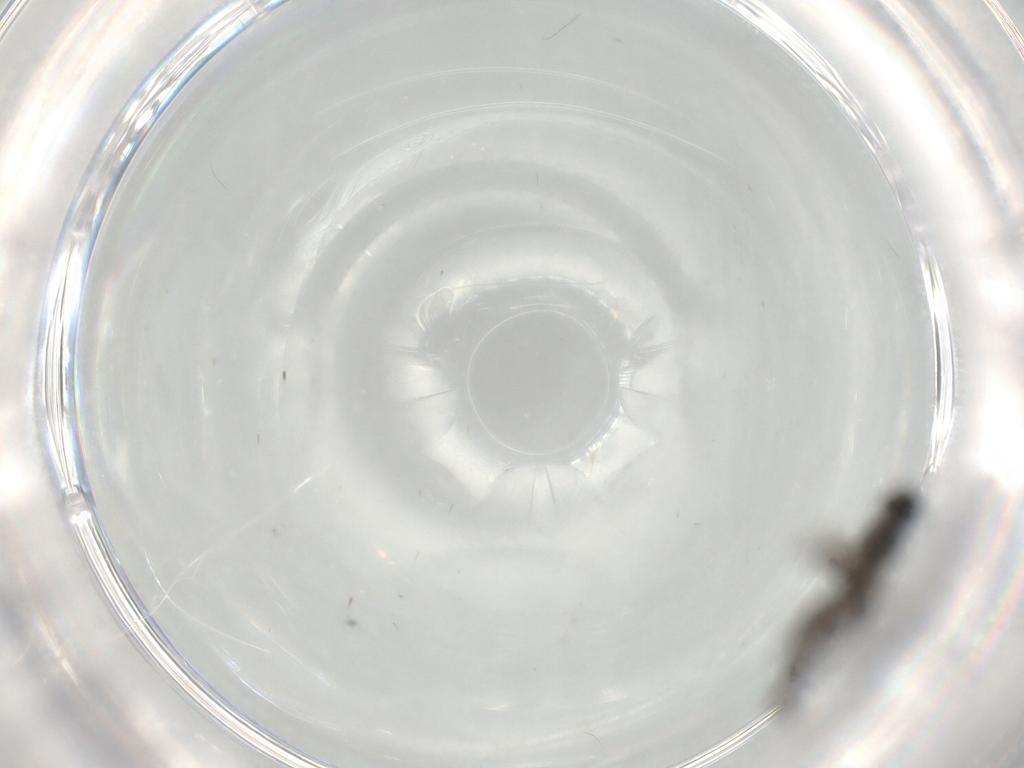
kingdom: Animalia
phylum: Arthropoda
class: Insecta
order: Diptera
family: Sciaridae
